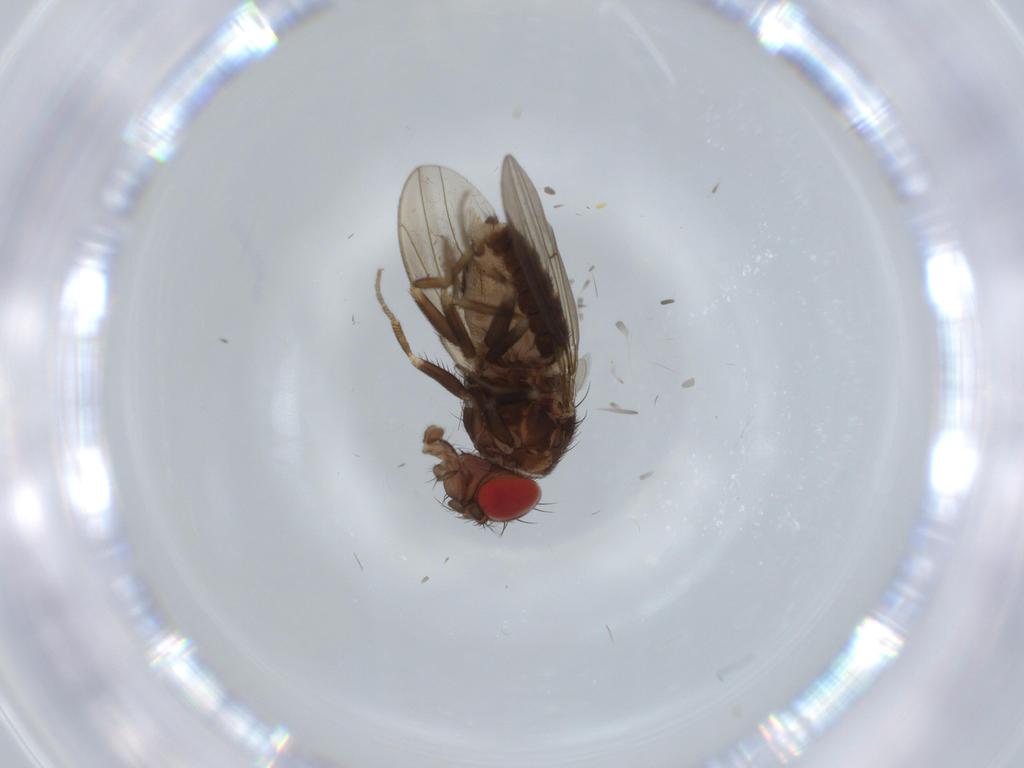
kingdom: Animalia
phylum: Arthropoda
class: Insecta
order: Diptera
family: Drosophilidae
